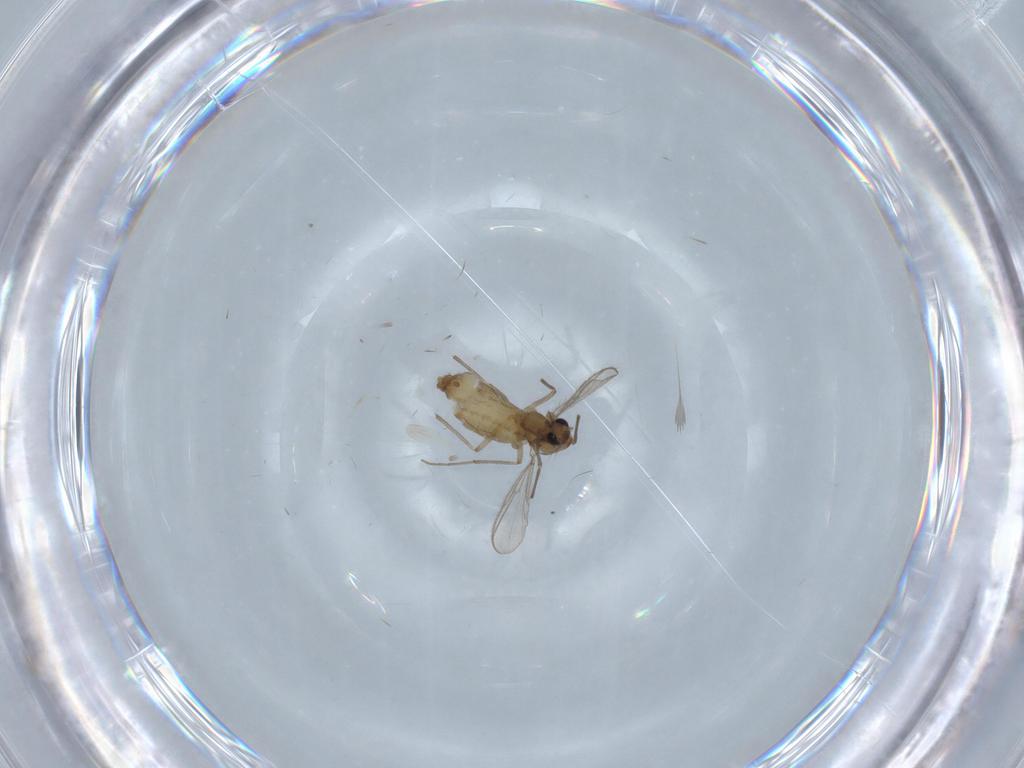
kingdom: Animalia
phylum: Arthropoda
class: Insecta
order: Diptera
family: Chironomidae
